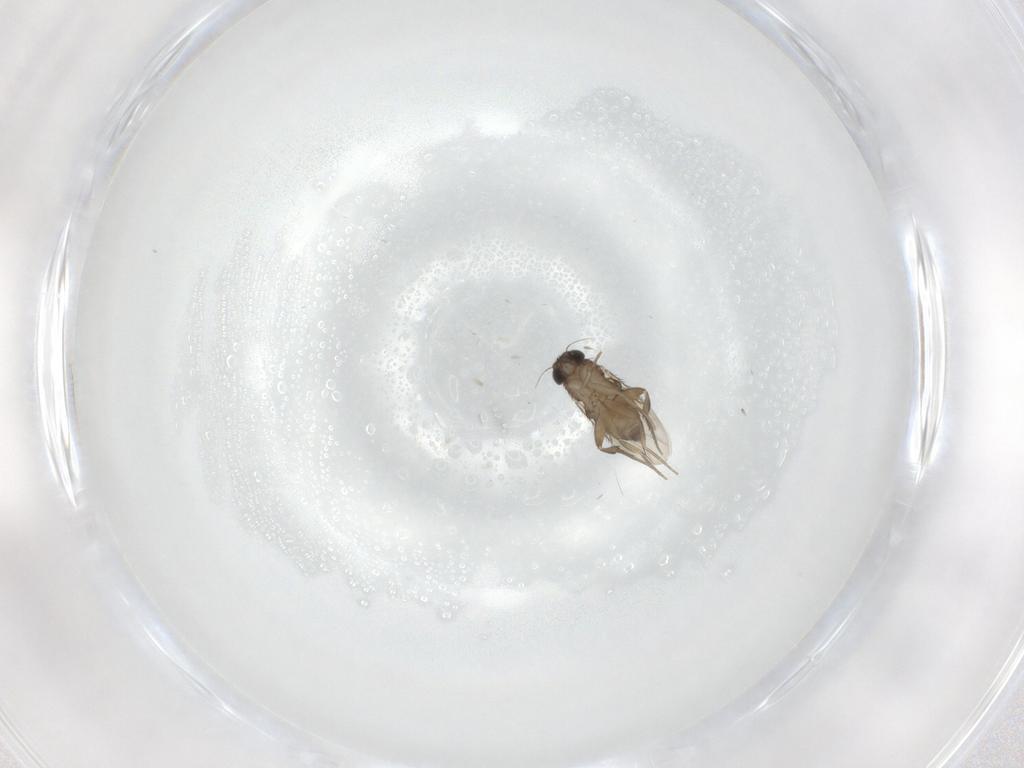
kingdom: Animalia
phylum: Arthropoda
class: Insecta
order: Diptera
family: Phoridae
